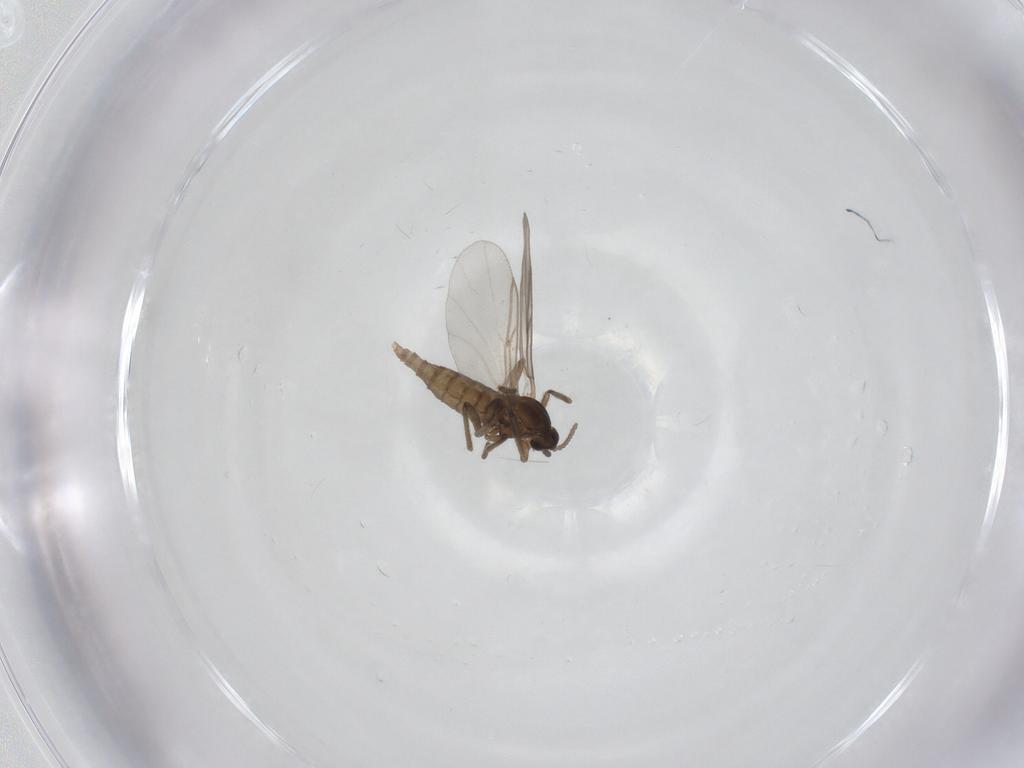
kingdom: Animalia
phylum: Arthropoda
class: Insecta
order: Diptera
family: Cecidomyiidae
